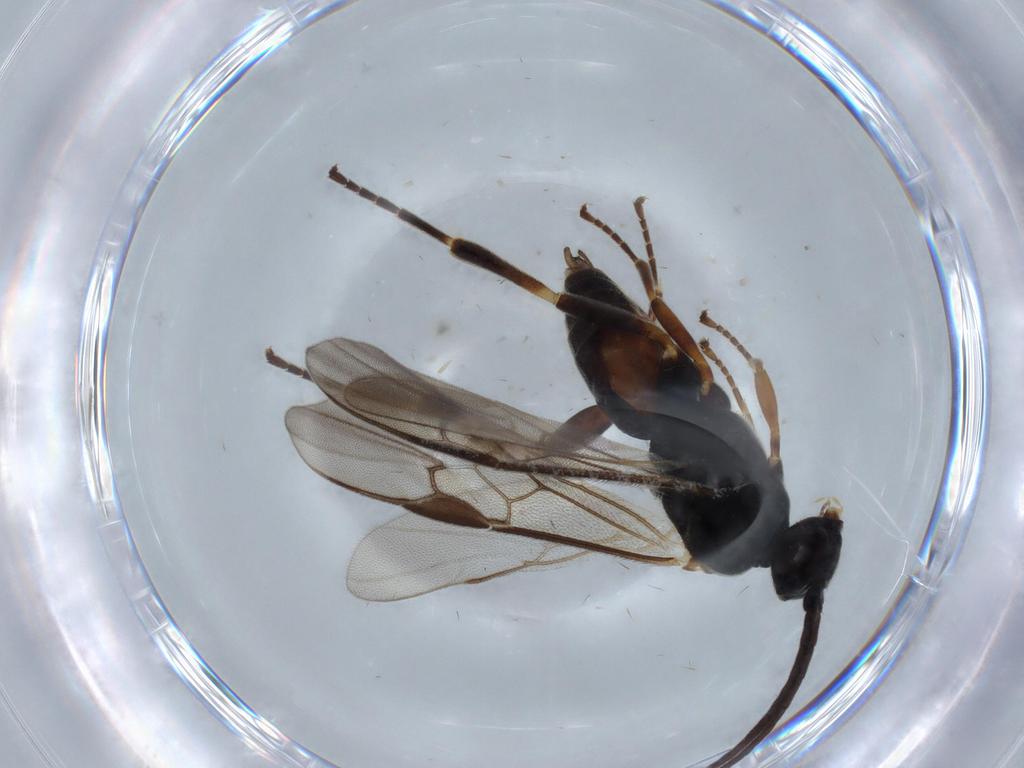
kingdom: Animalia
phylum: Arthropoda
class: Insecta
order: Hymenoptera
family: Braconidae
